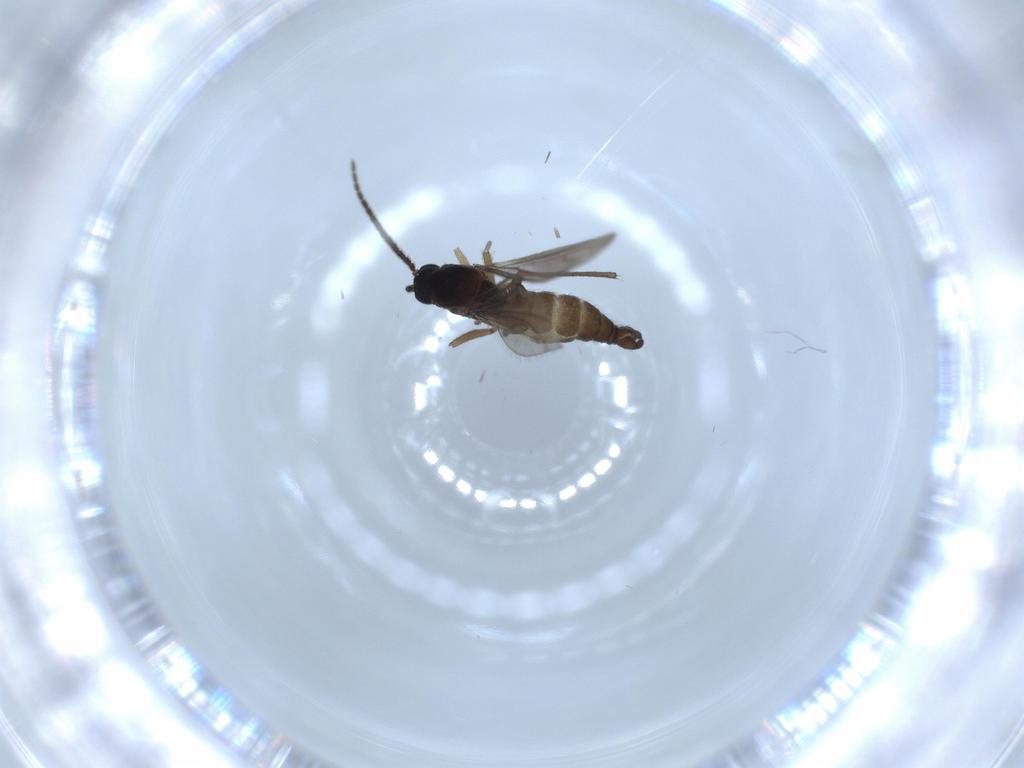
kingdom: Animalia
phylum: Arthropoda
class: Insecta
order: Diptera
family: Sciaridae
